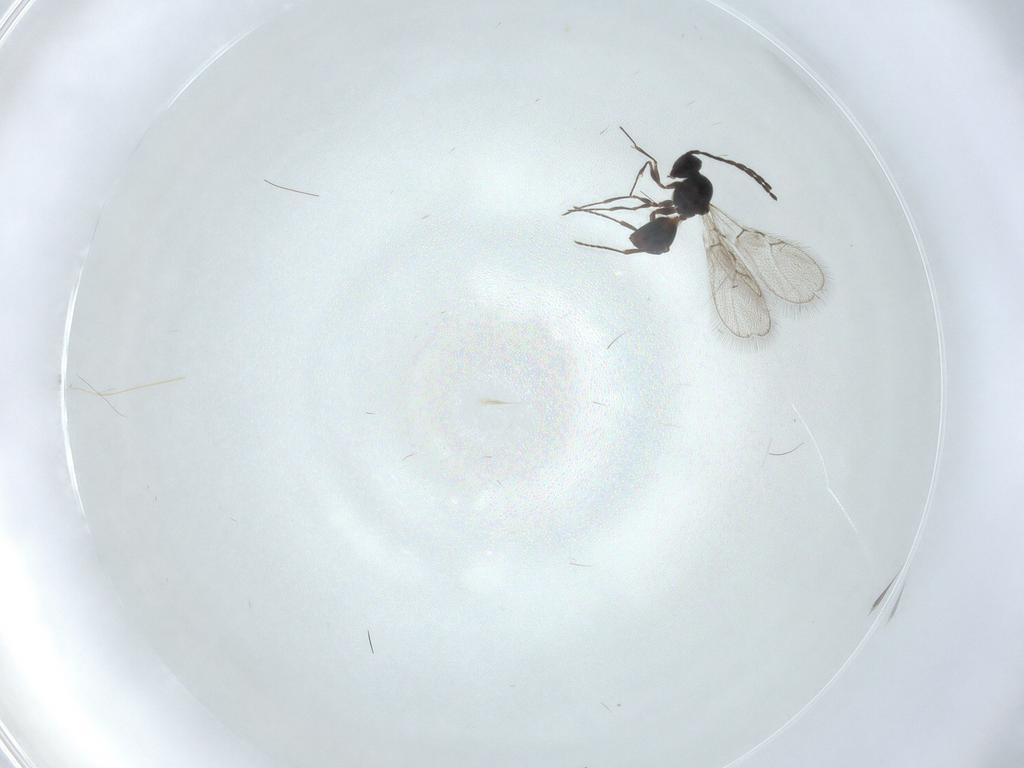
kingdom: Animalia
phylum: Arthropoda
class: Insecta
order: Hymenoptera
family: Figitidae
